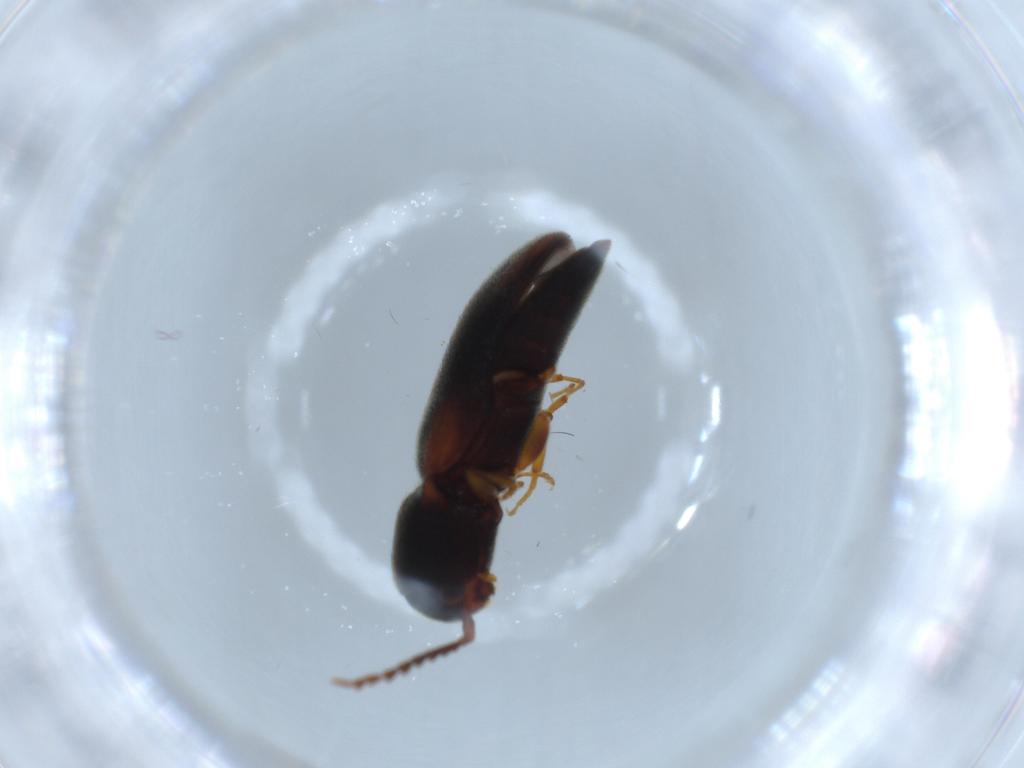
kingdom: Animalia
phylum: Arthropoda
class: Insecta
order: Coleoptera
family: Eucnemidae
